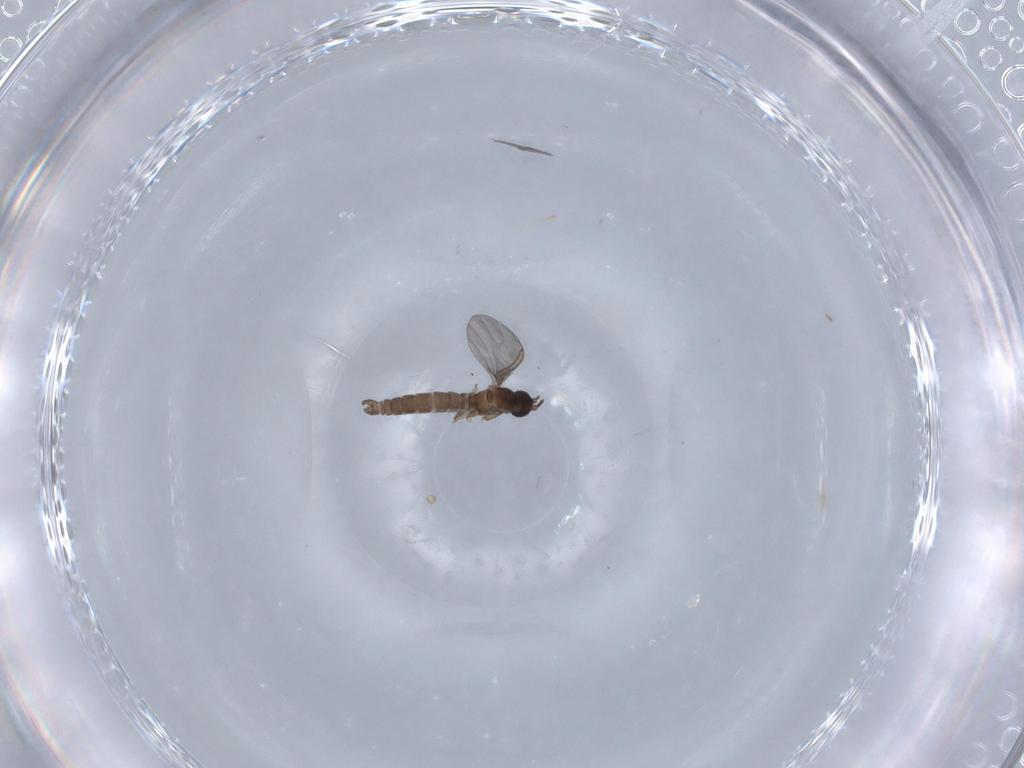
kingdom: Animalia
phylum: Arthropoda
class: Insecta
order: Diptera
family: Sciaridae
